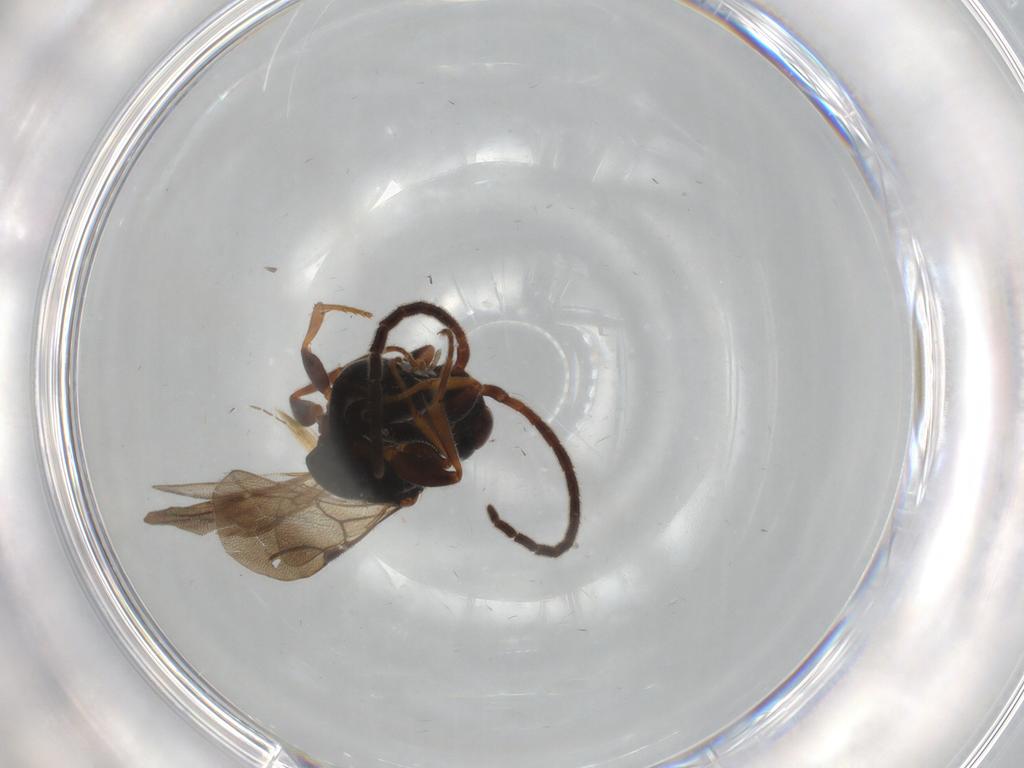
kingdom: Animalia
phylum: Arthropoda
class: Insecta
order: Hymenoptera
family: Bethylidae
